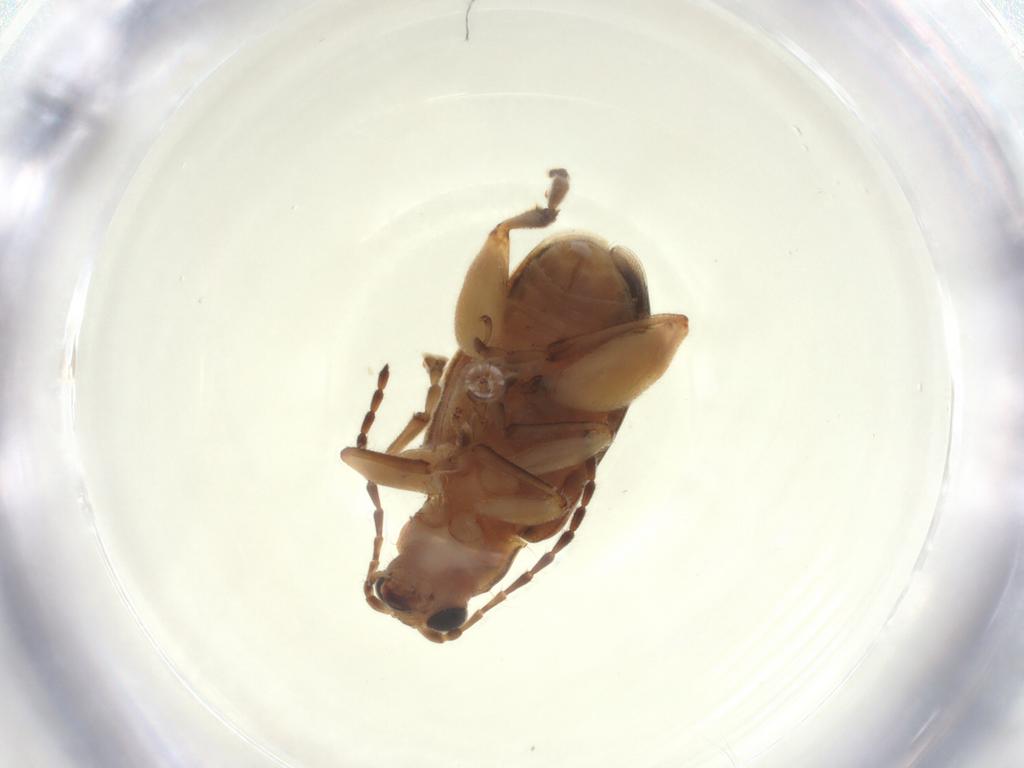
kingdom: Animalia
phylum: Arthropoda
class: Insecta
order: Coleoptera
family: Chrysomelidae
